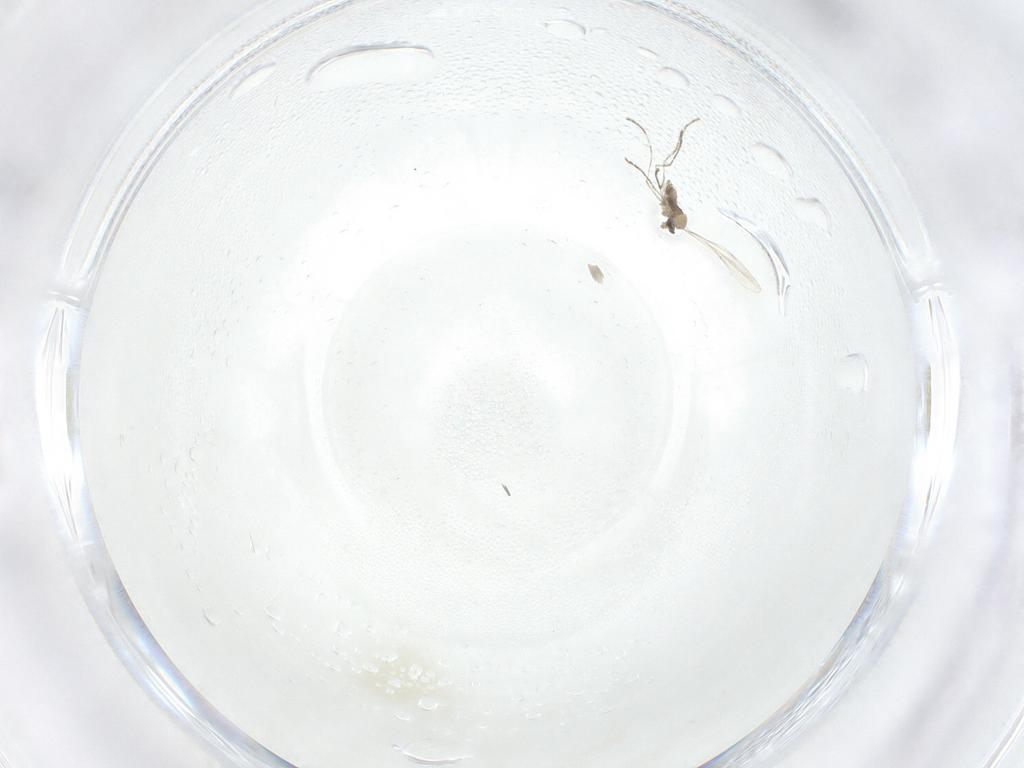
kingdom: Animalia
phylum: Arthropoda
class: Insecta
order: Diptera
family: Cecidomyiidae
